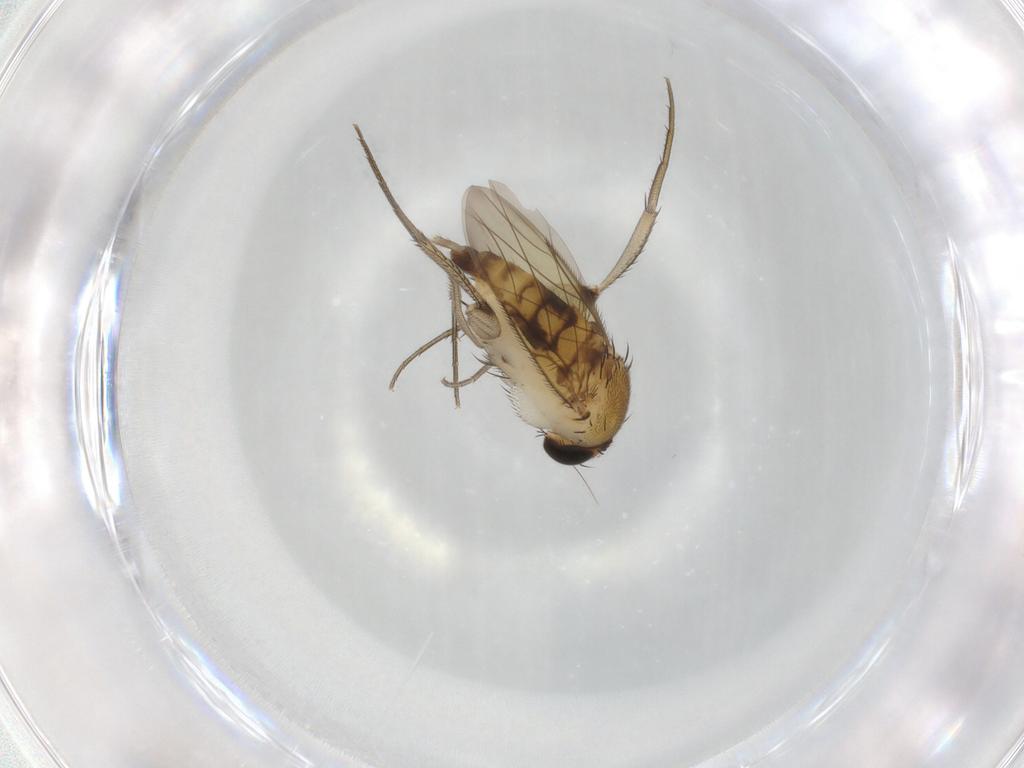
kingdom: Animalia
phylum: Arthropoda
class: Insecta
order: Diptera
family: Phoridae
